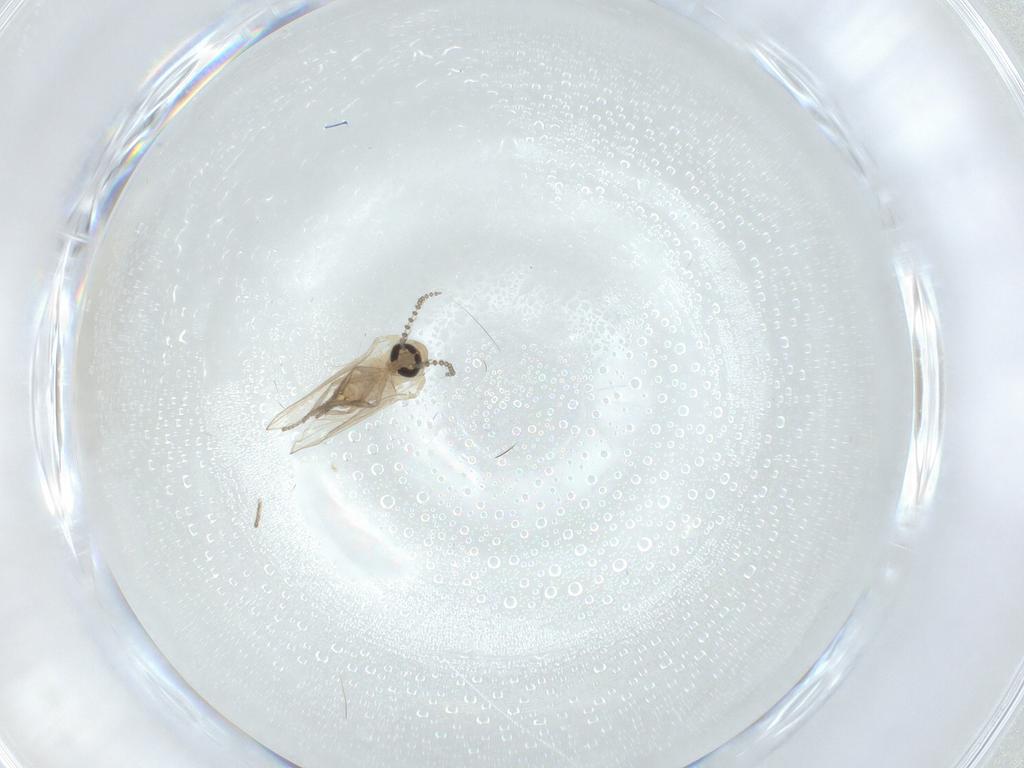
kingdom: Animalia
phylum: Arthropoda
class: Insecta
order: Diptera
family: Psychodidae
